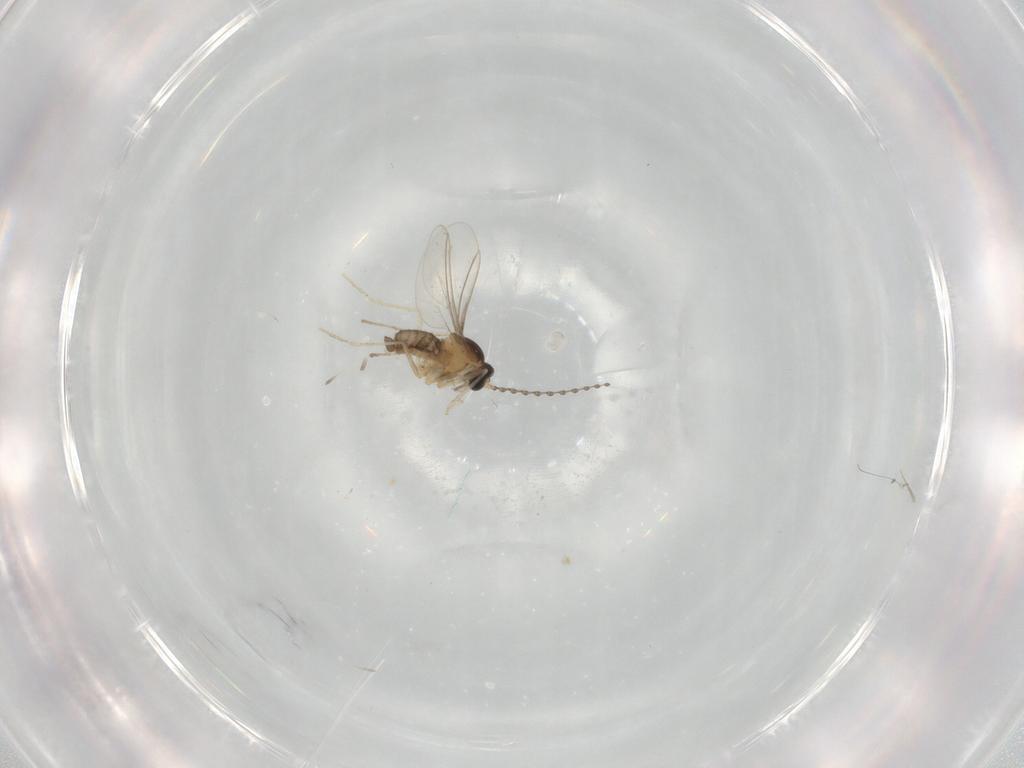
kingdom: Animalia
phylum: Arthropoda
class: Insecta
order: Diptera
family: Cecidomyiidae
